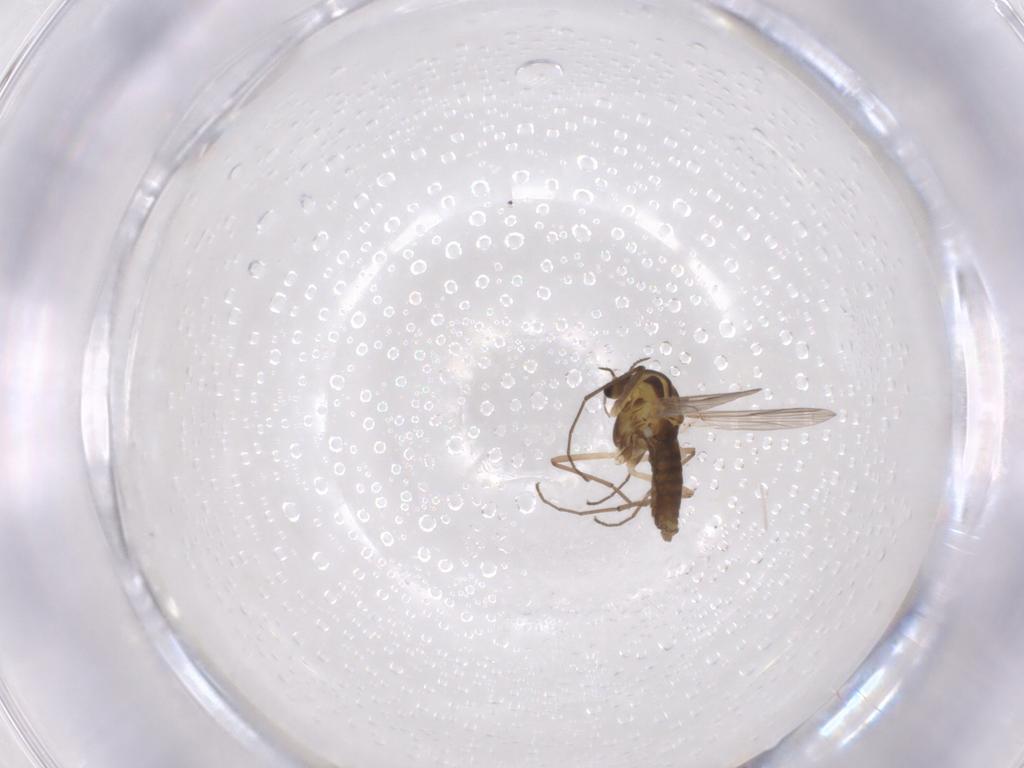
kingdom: Animalia
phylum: Arthropoda
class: Insecta
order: Diptera
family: Chironomidae
